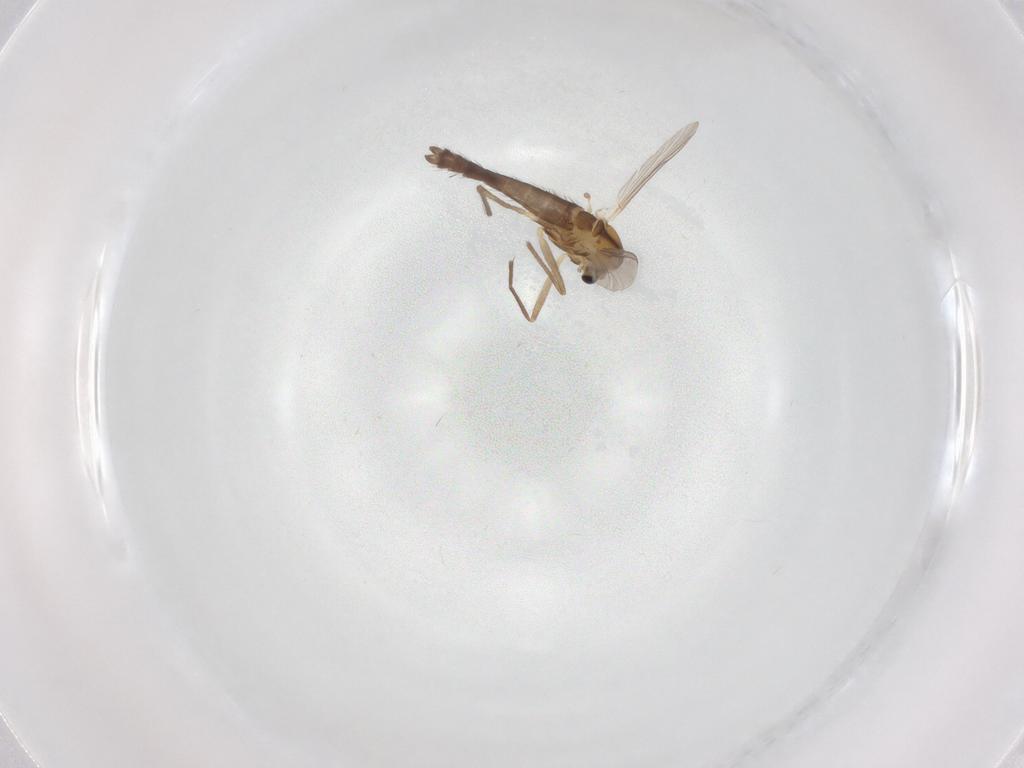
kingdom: Animalia
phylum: Arthropoda
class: Insecta
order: Diptera
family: Chironomidae
